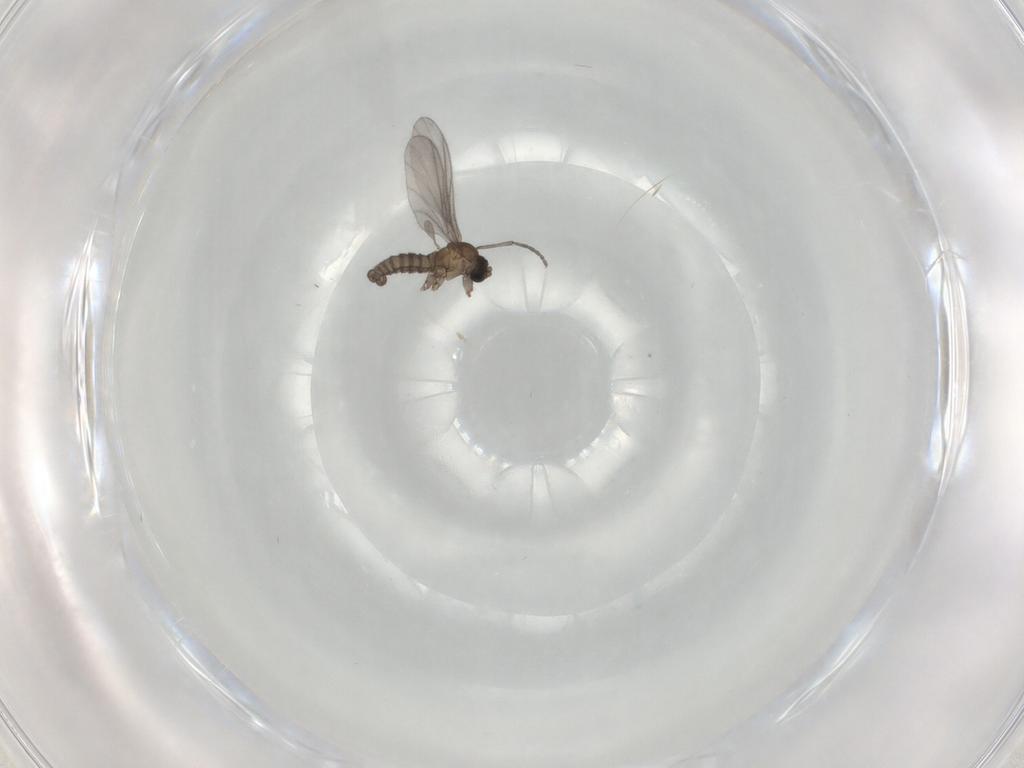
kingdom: Animalia
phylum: Arthropoda
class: Insecta
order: Diptera
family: Sciaridae
